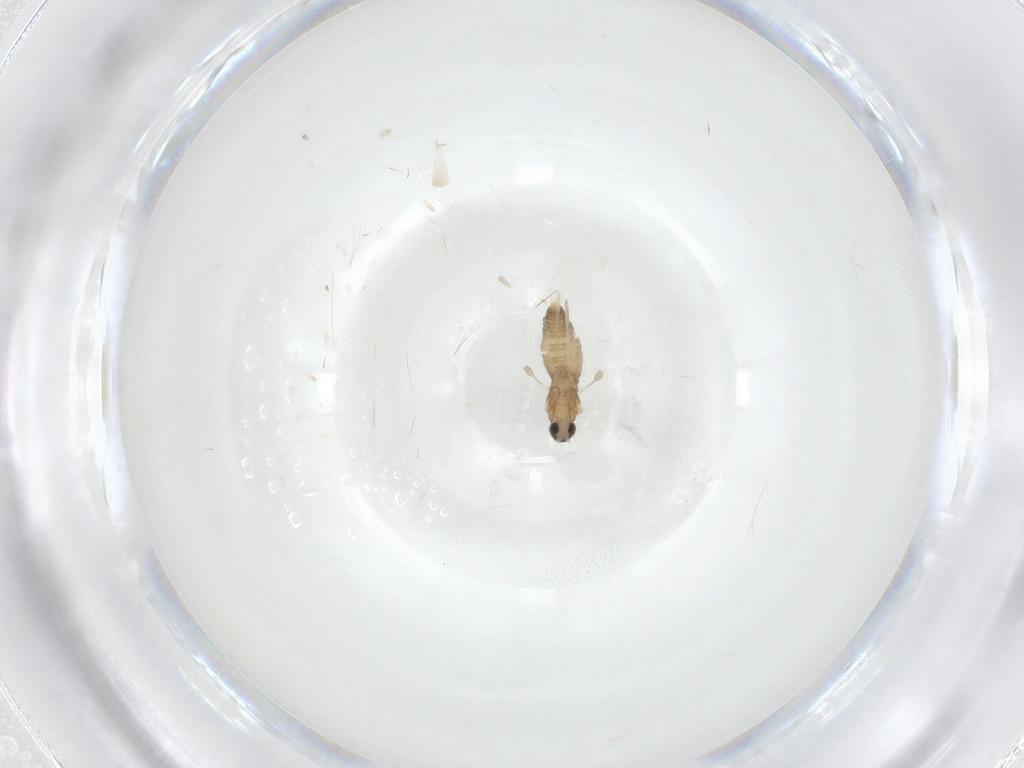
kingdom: Animalia
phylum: Arthropoda
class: Insecta
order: Diptera
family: Cecidomyiidae
